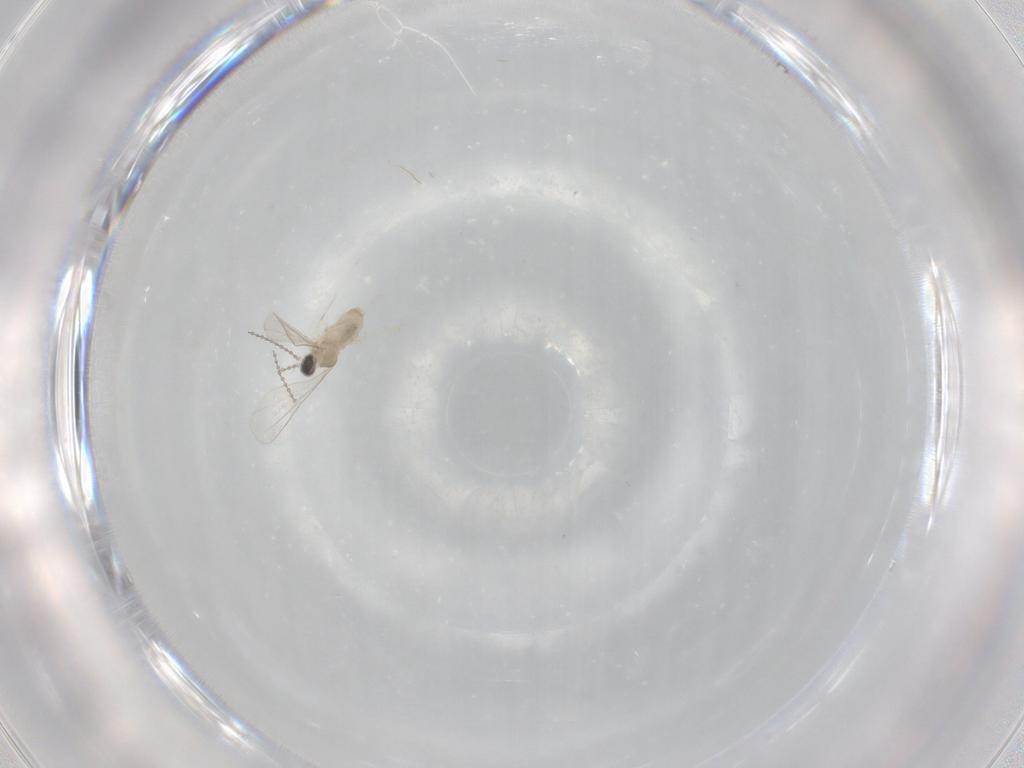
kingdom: Animalia
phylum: Arthropoda
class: Insecta
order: Diptera
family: Cecidomyiidae
